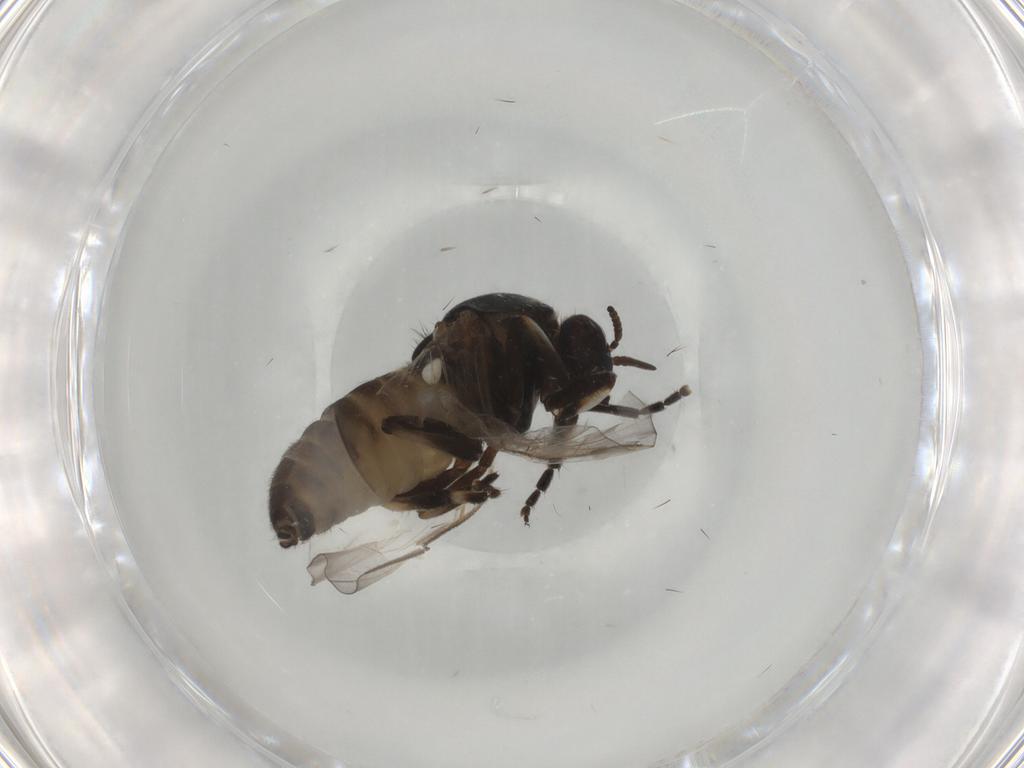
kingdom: Animalia
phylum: Arthropoda
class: Insecta
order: Diptera
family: Simuliidae
